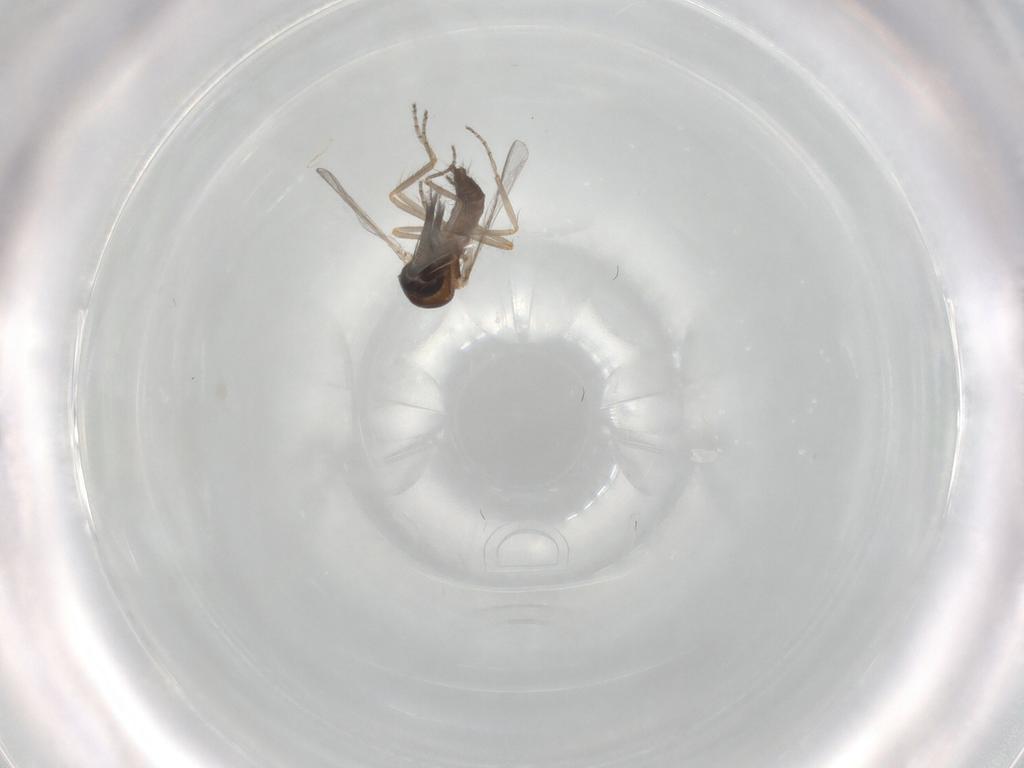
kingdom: Animalia
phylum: Arthropoda
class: Insecta
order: Diptera
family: Ceratopogonidae
